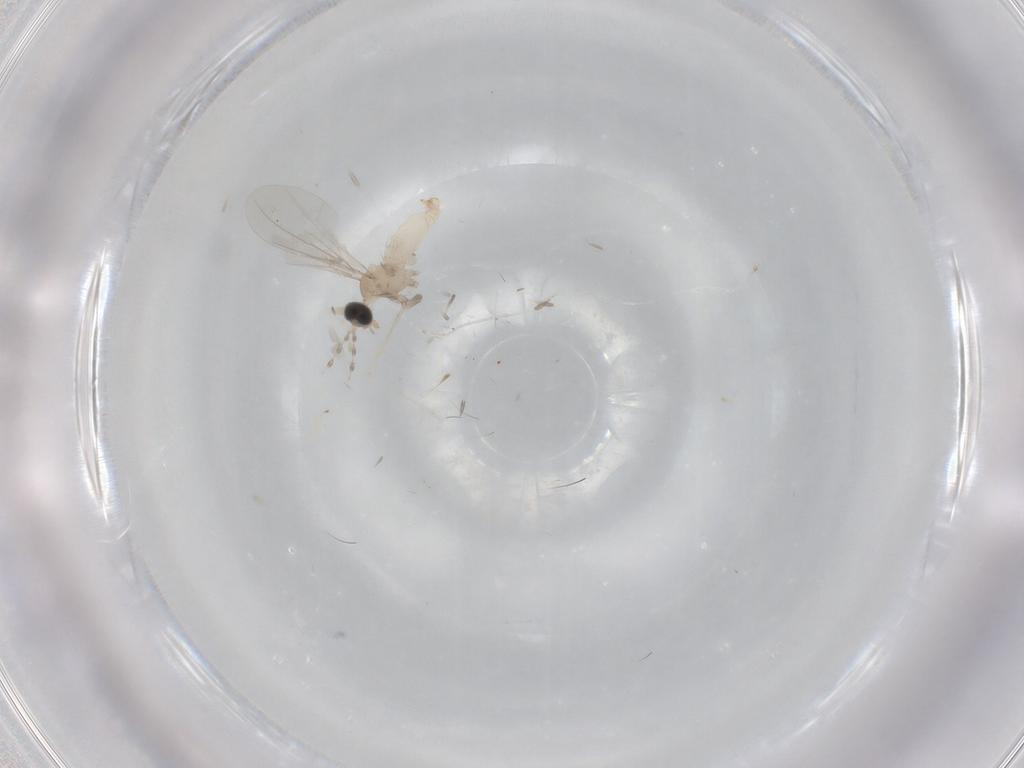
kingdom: Animalia
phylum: Arthropoda
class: Insecta
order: Diptera
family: Cecidomyiidae
